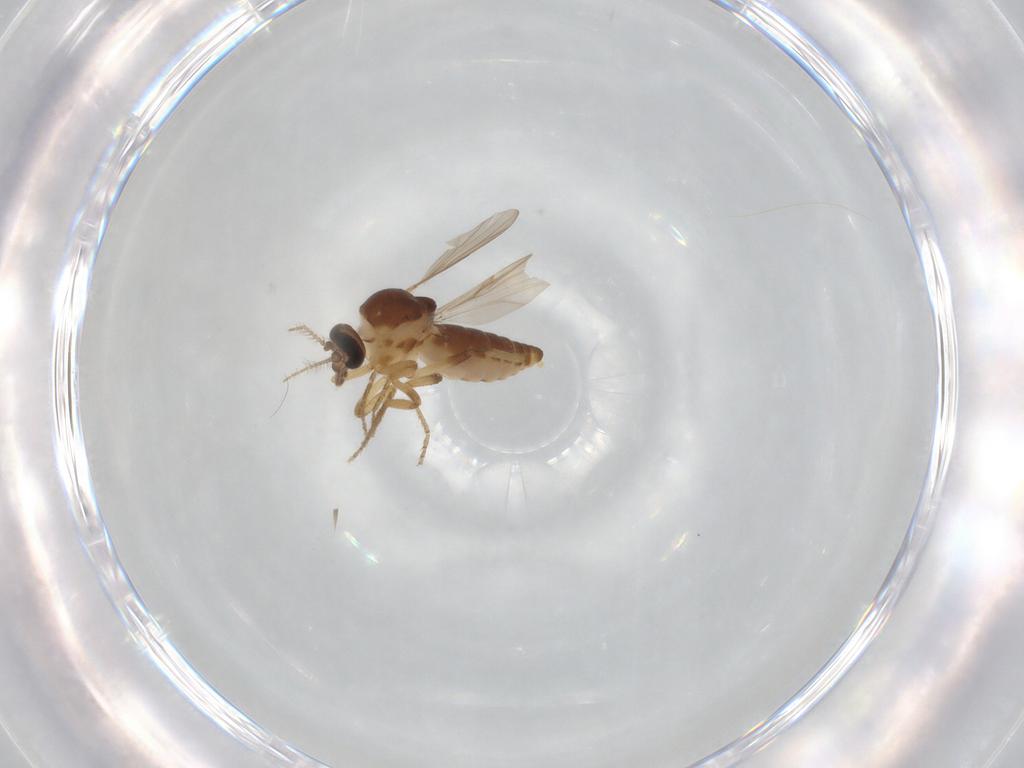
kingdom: Animalia
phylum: Arthropoda
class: Insecta
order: Diptera
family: Ceratopogonidae
